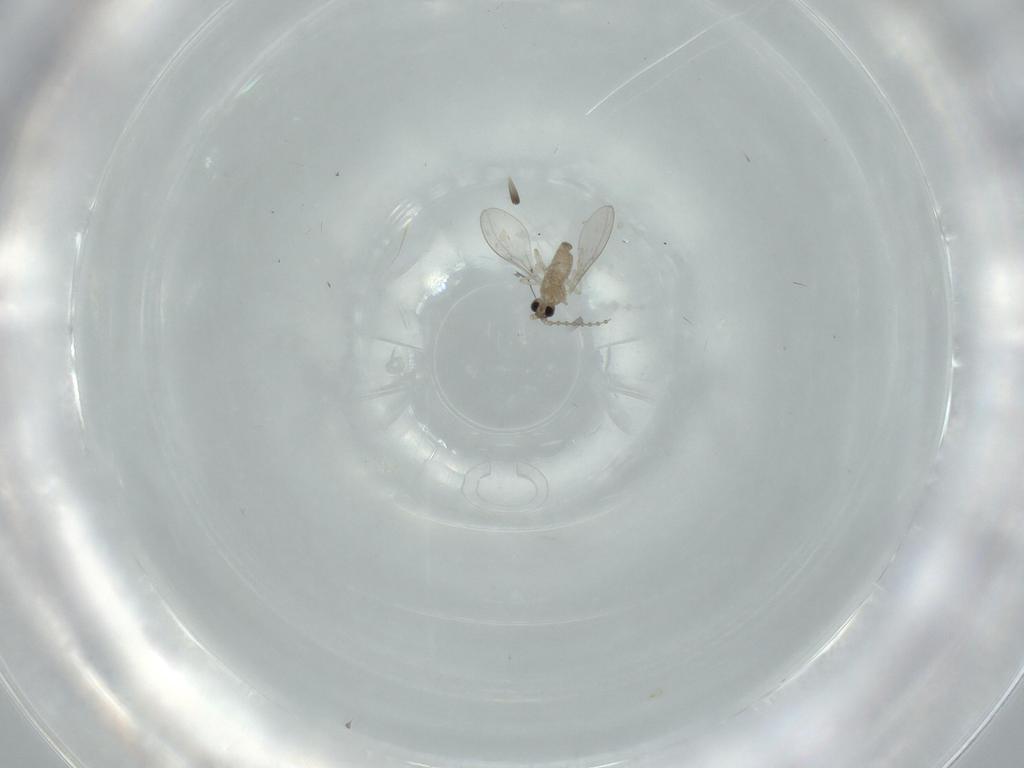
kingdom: Animalia
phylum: Arthropoda
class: Insecta
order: Diptera
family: Cecidomyiidae
